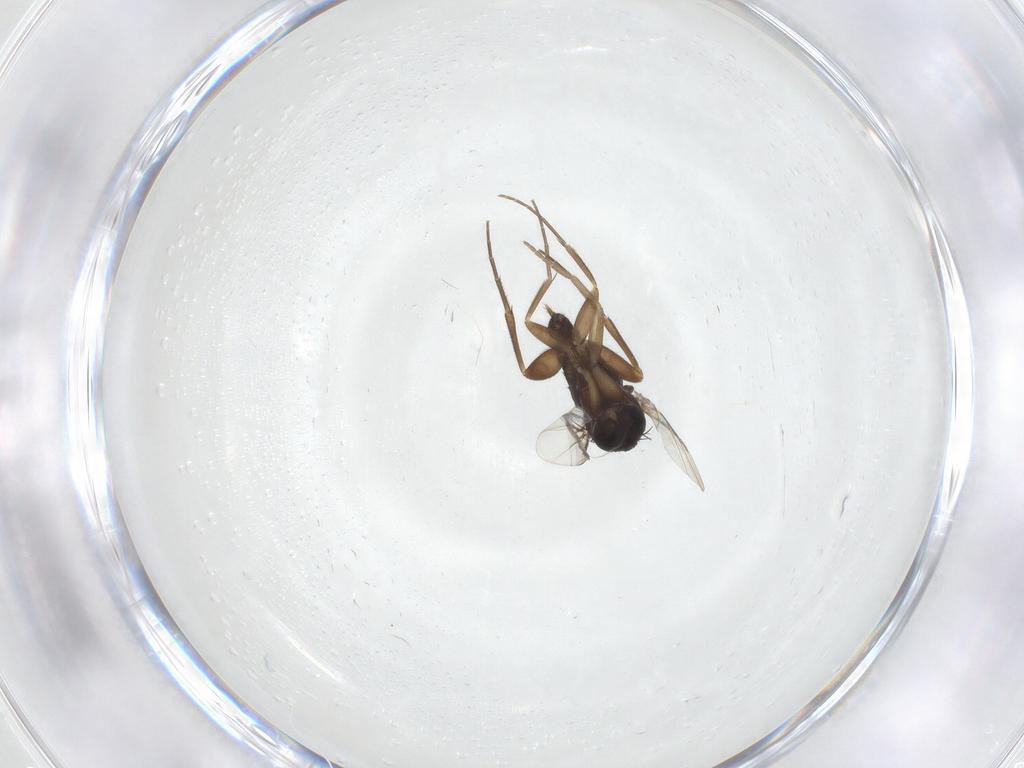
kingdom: Animalia
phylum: Arthropoda
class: Insecta
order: Diptera
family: Phoridae
